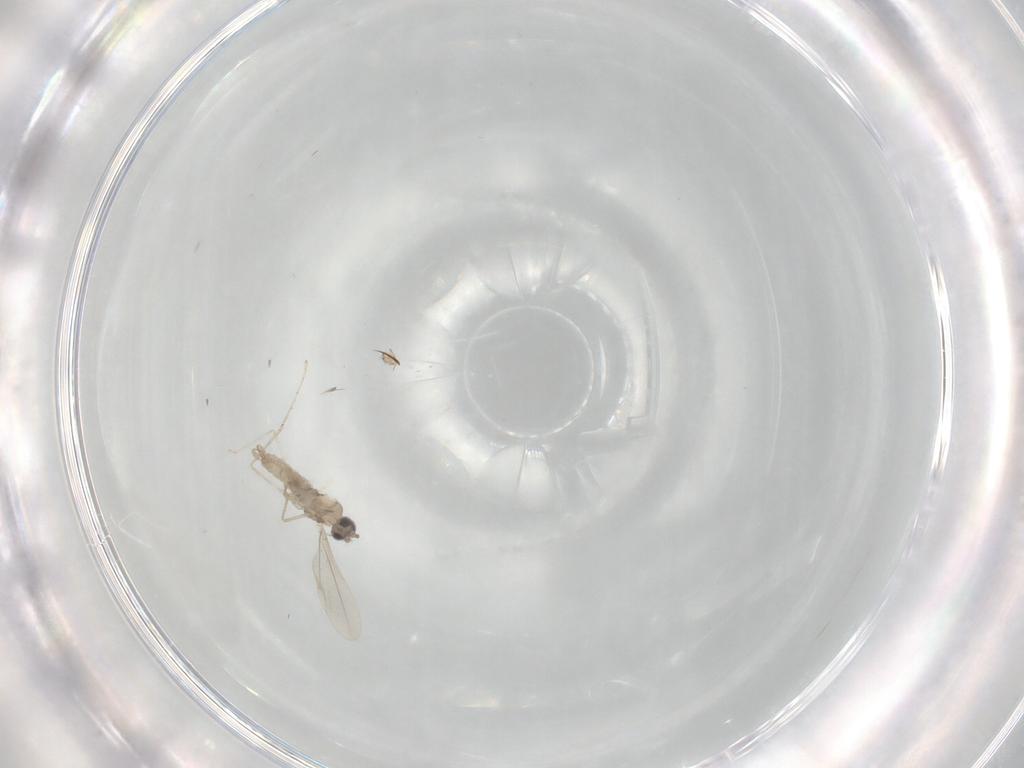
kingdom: Animalia
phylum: Arthropoda
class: Insecta
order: Diptera
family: Cecidomyiidae
